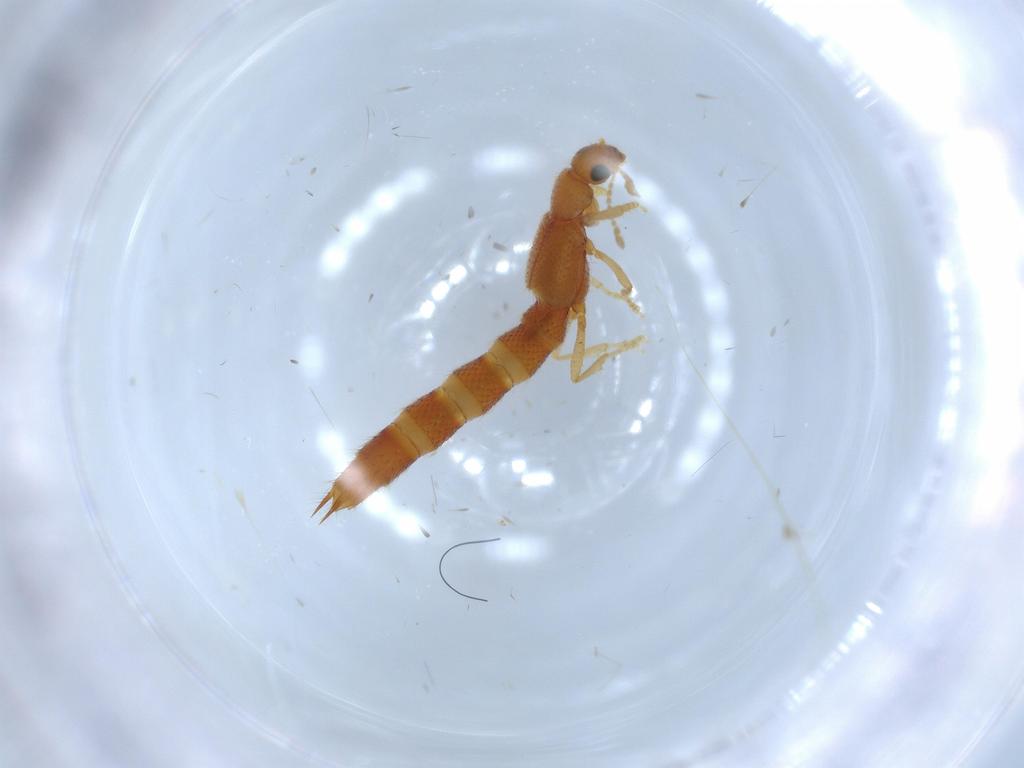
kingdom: Animalia
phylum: Arthropoda
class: Insecta
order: Coleoptera
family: Staphylinidae
